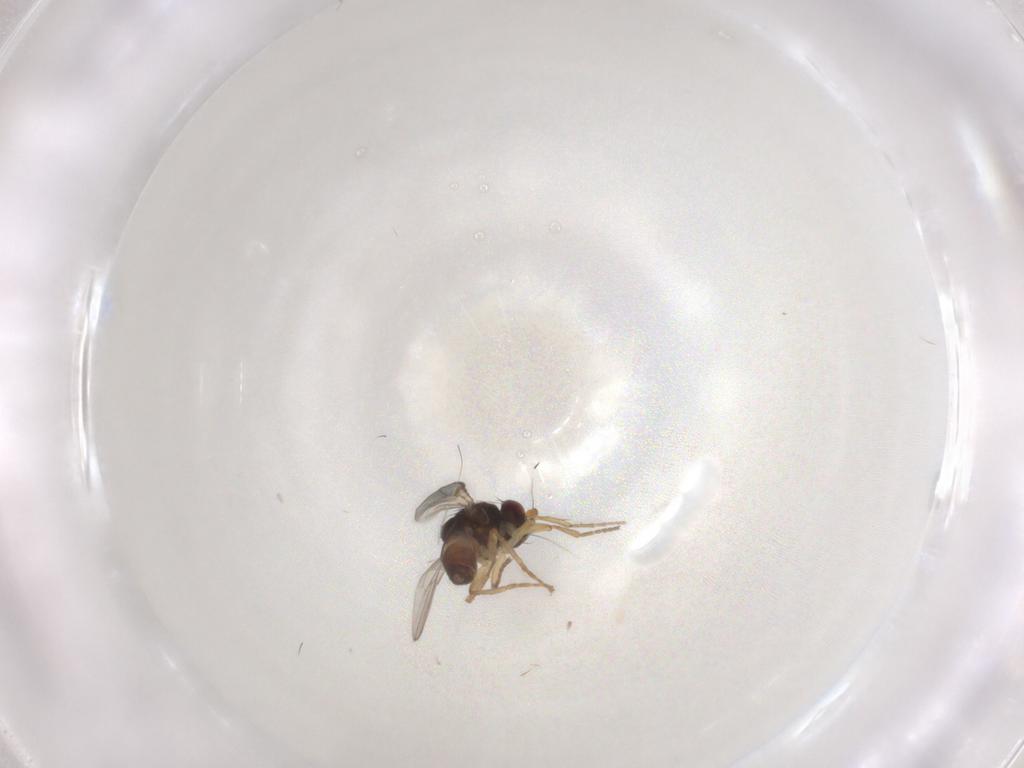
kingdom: Animalia
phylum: Arthropoda
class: Insecta
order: Diptera
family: Sphaeroceridae
